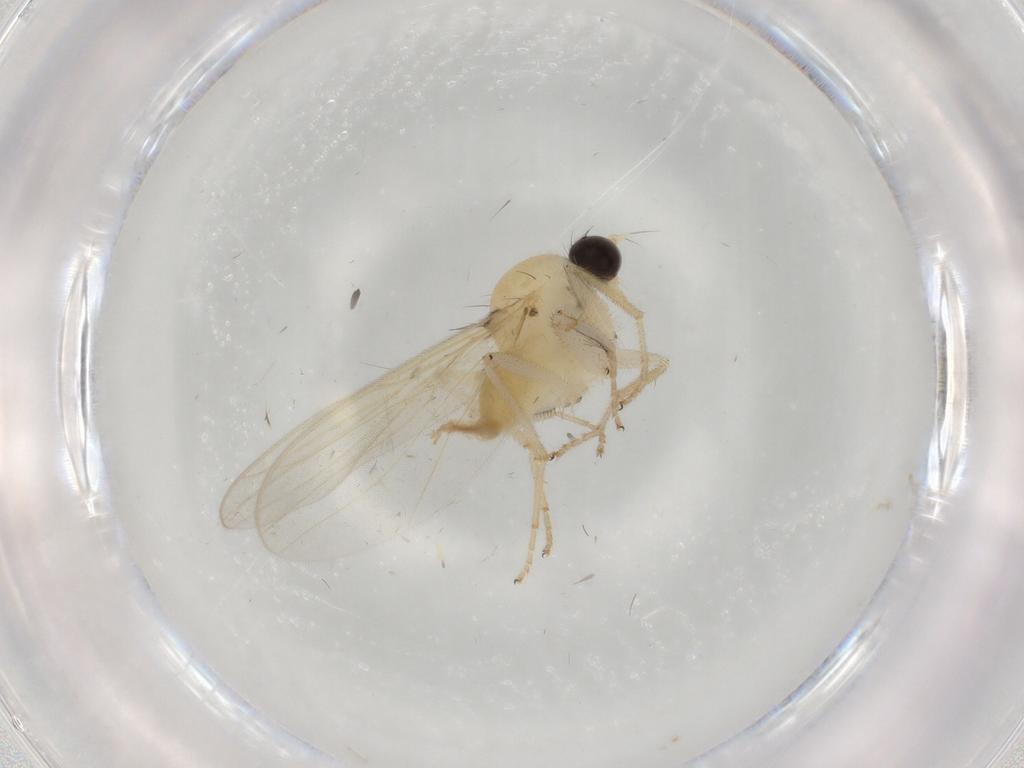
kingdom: Animalia
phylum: Arthropoda
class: Insecta
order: Diptera
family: Hybotidae
